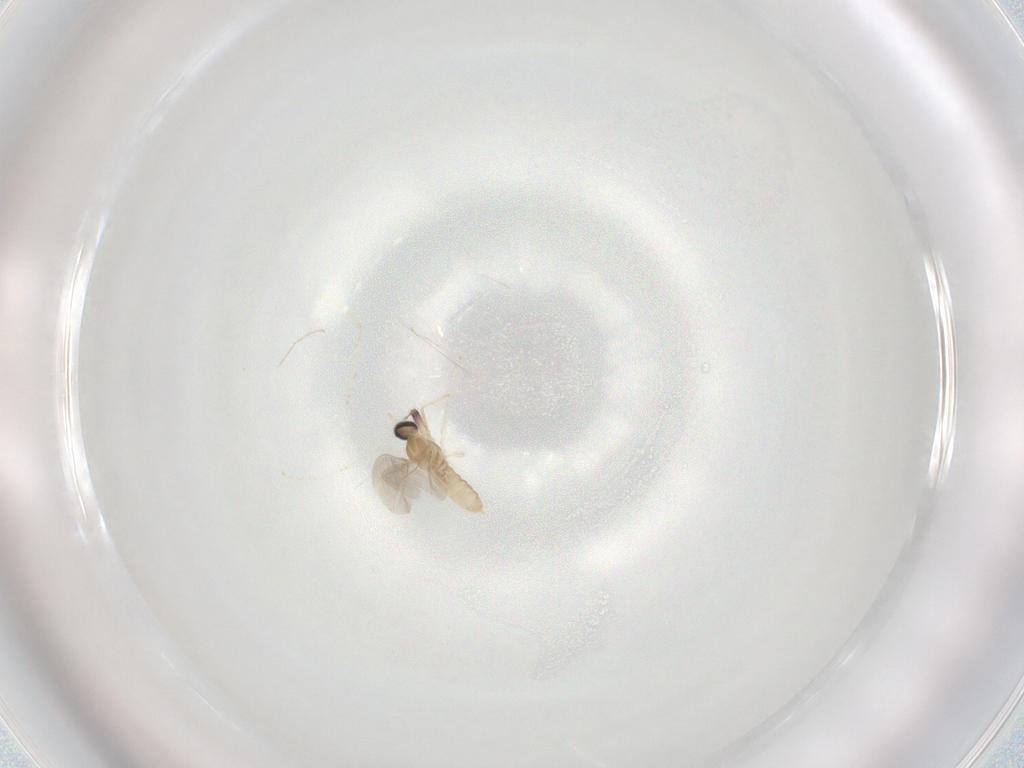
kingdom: Animalia
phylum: Arthropoda
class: Insecta
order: Diptera
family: Cecidomyiidae
